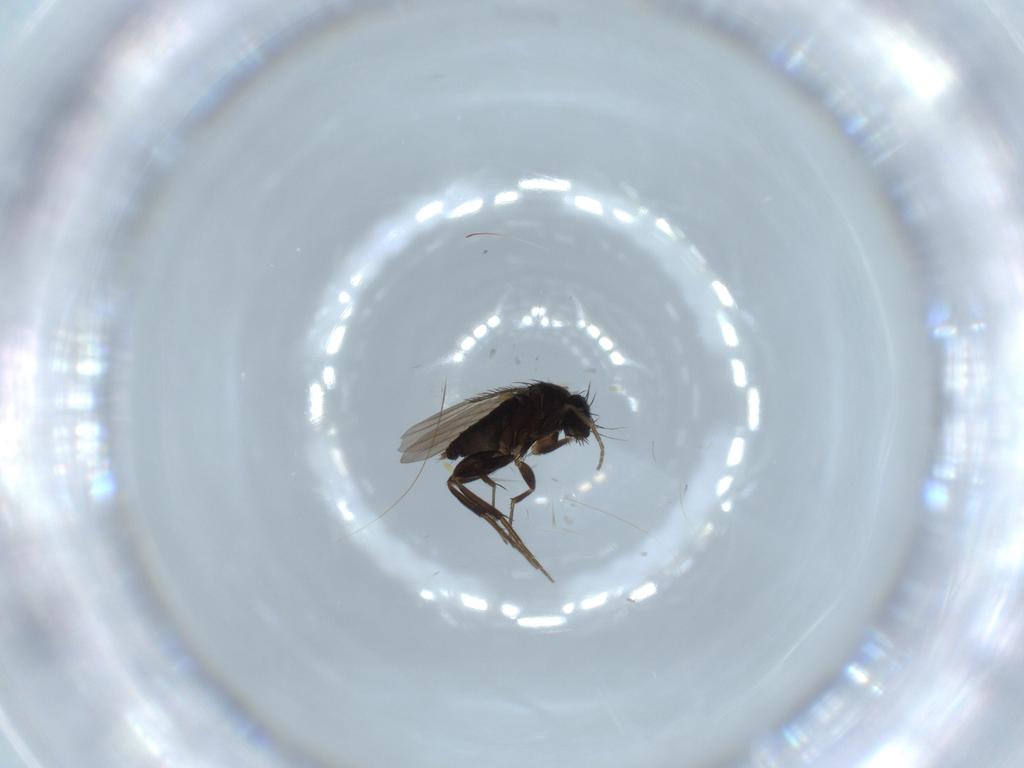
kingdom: Animalia
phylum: Arthropoda
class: Insecta
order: Diptera
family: Phoridae
